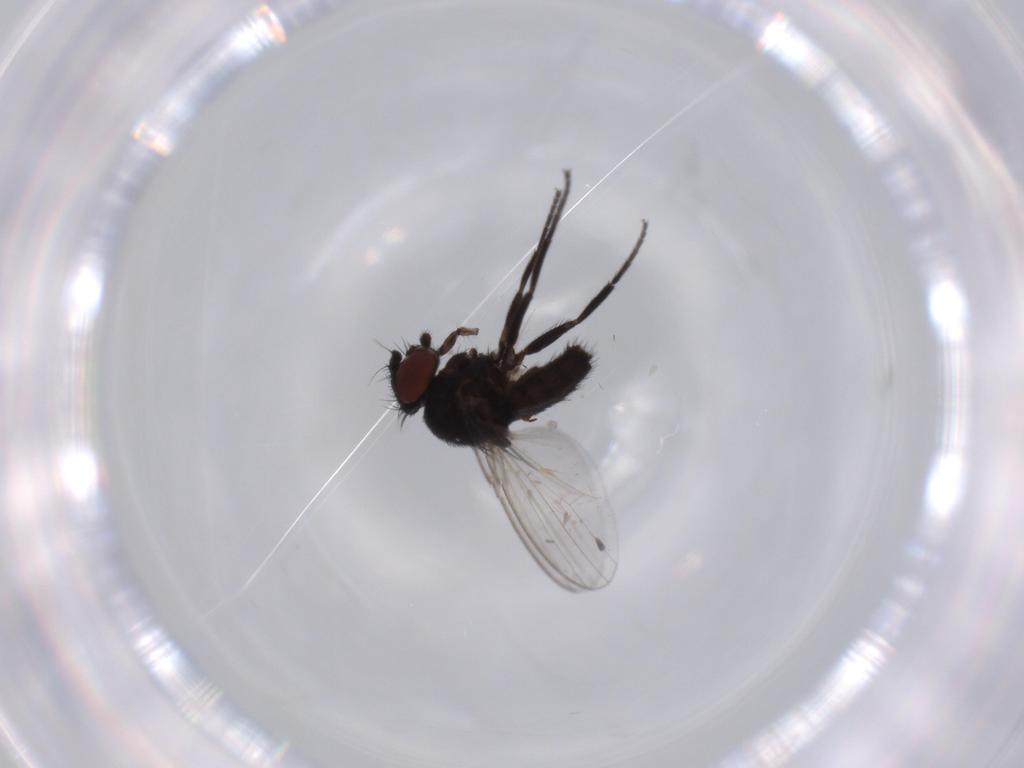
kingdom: Animalia
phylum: Arthropoda
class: Insecta
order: Diptera
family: Milichiidae
